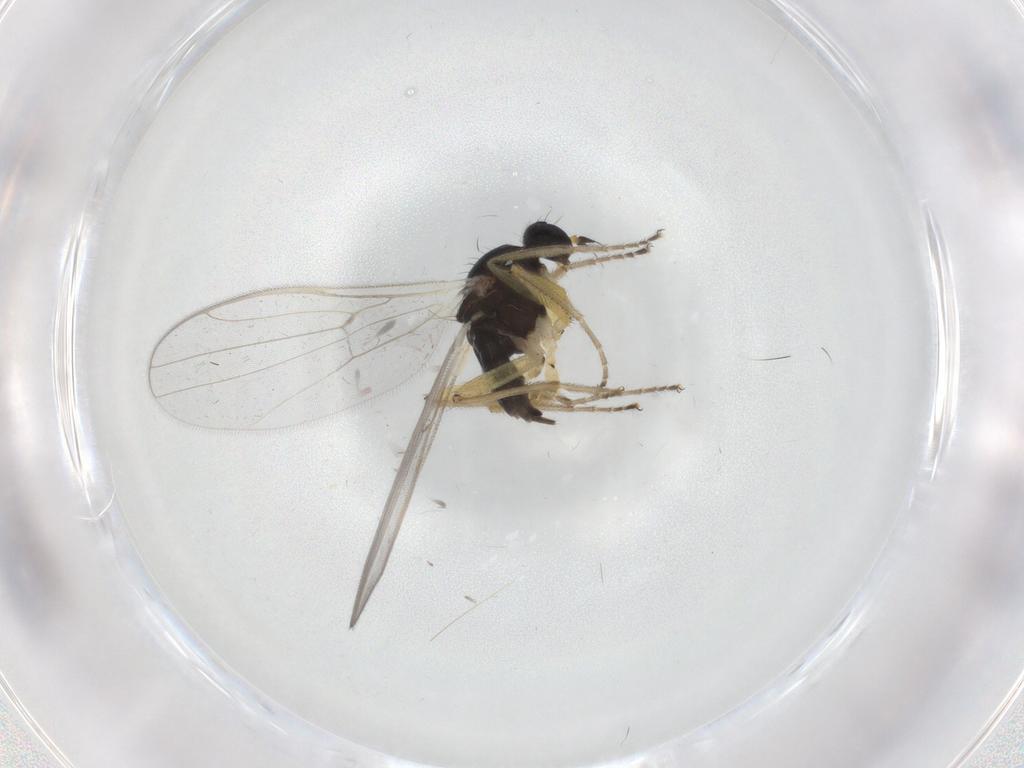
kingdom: Animalia
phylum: Arthropoda
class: Insecta
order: Diptera
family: Hybotidae
